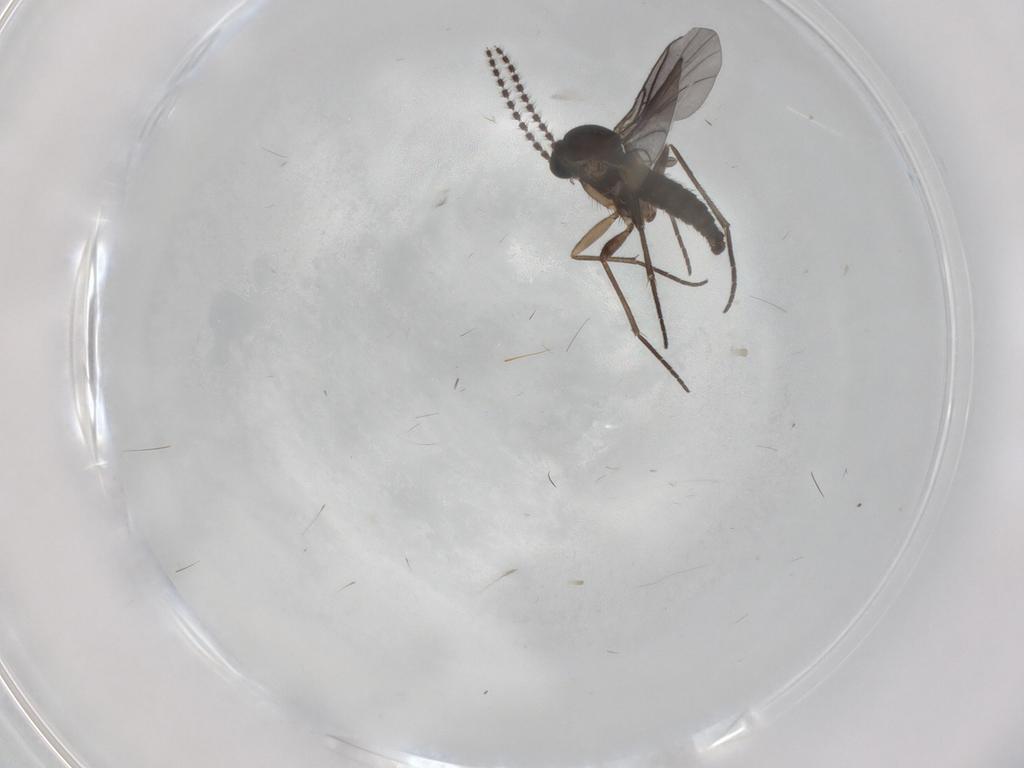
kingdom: Animalia
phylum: Arthropoda
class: Insecta
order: Diptera
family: Sciaridae
